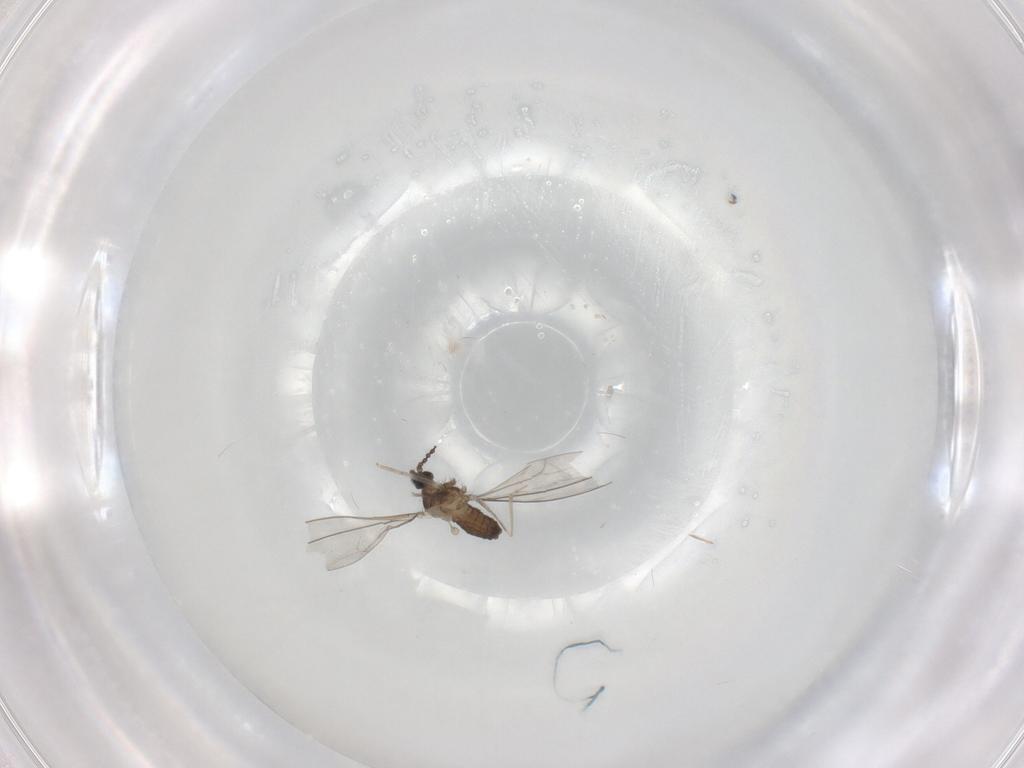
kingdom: Animalia
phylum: Arthropoda
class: Insecta
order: Diptera
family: Cecidomyiidae
